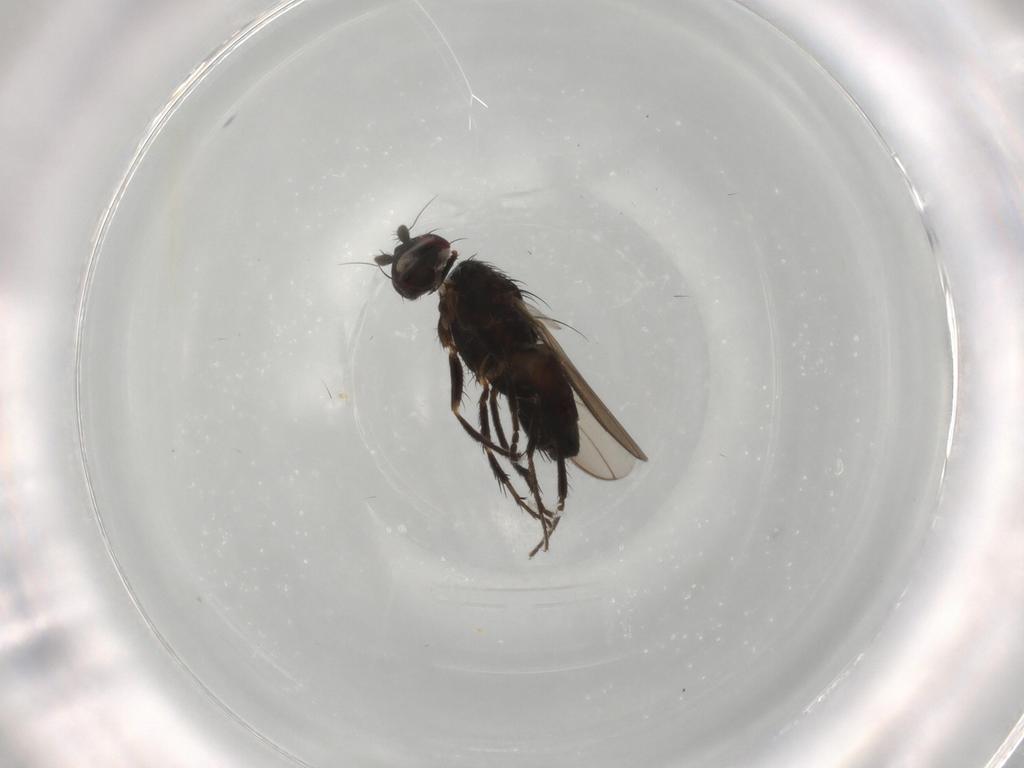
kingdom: Animalia
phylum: Arthropoda
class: Insecta
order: Diptera
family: Sphaeroceridae
